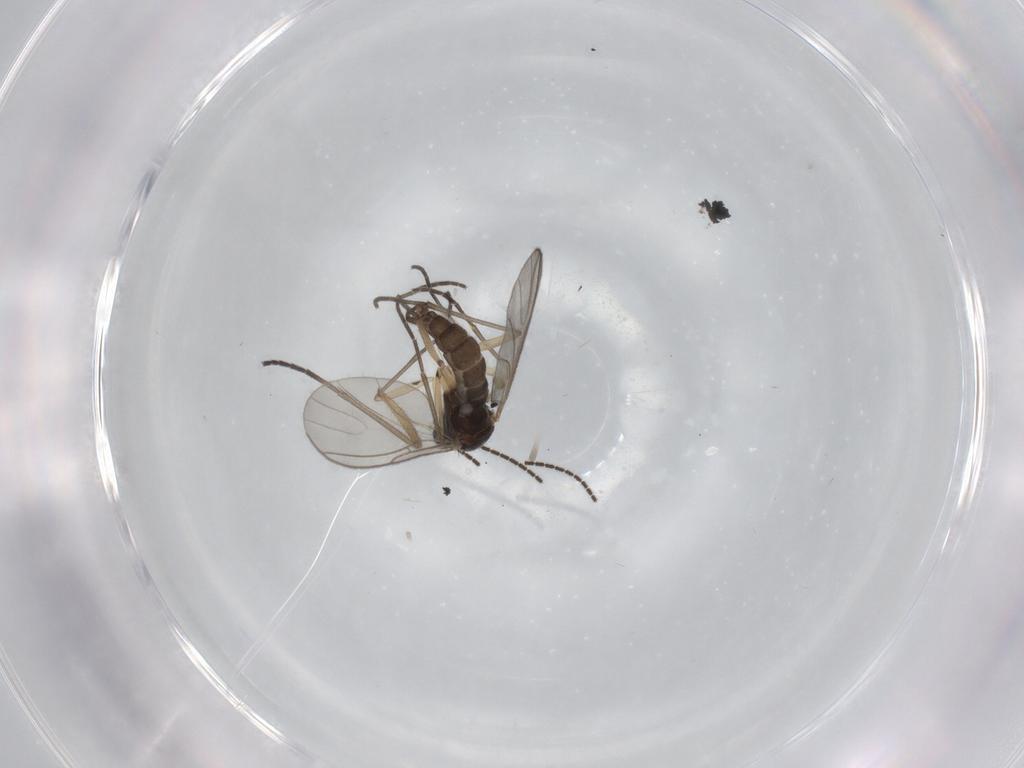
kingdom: Animalia
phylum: Arthropoda
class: Insecta
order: Diptera
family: Sciaridae
